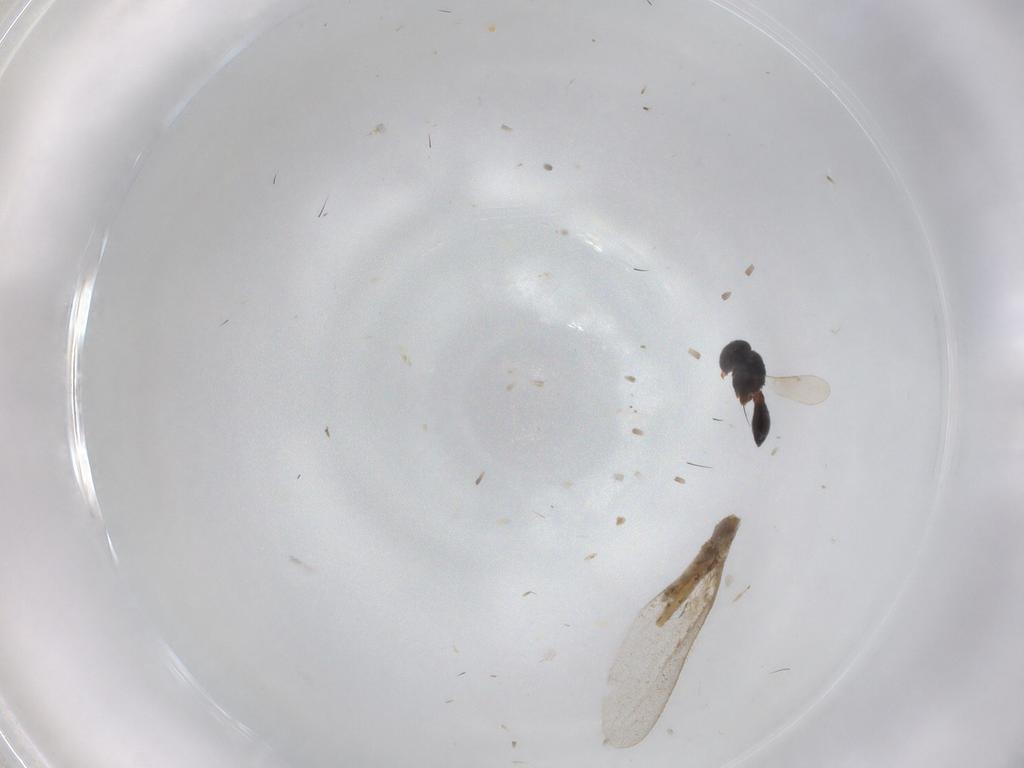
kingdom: Animalia
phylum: Arthropoda
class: Insecta
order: Hymenoptera
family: Scelionidae
